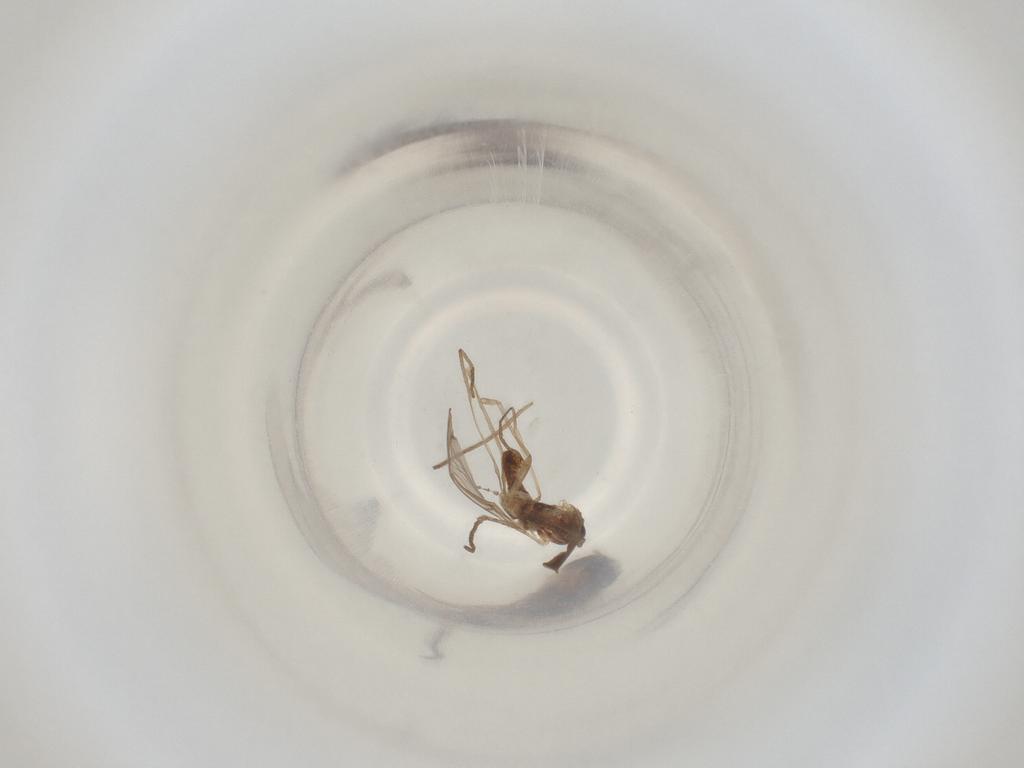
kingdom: Animalia
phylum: Arthropoda
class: Insecta
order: Diptera
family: Cecidomyiidae
